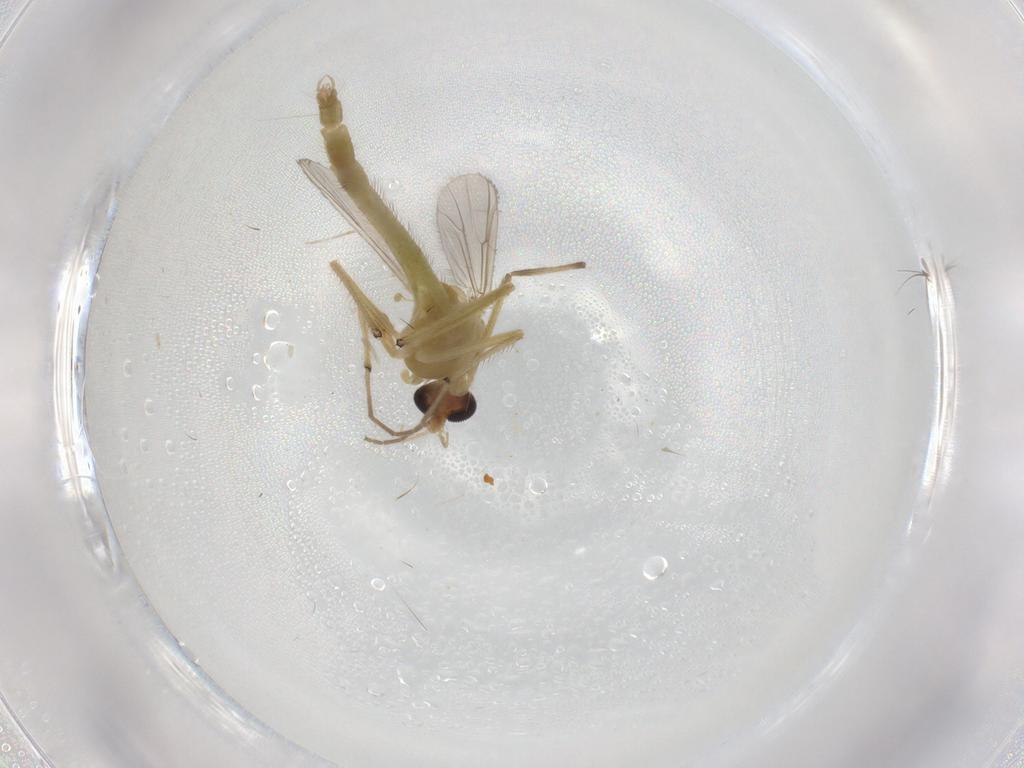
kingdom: Animalia
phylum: Arthropoda
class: Insecta
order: Diptera
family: Chironomidae
